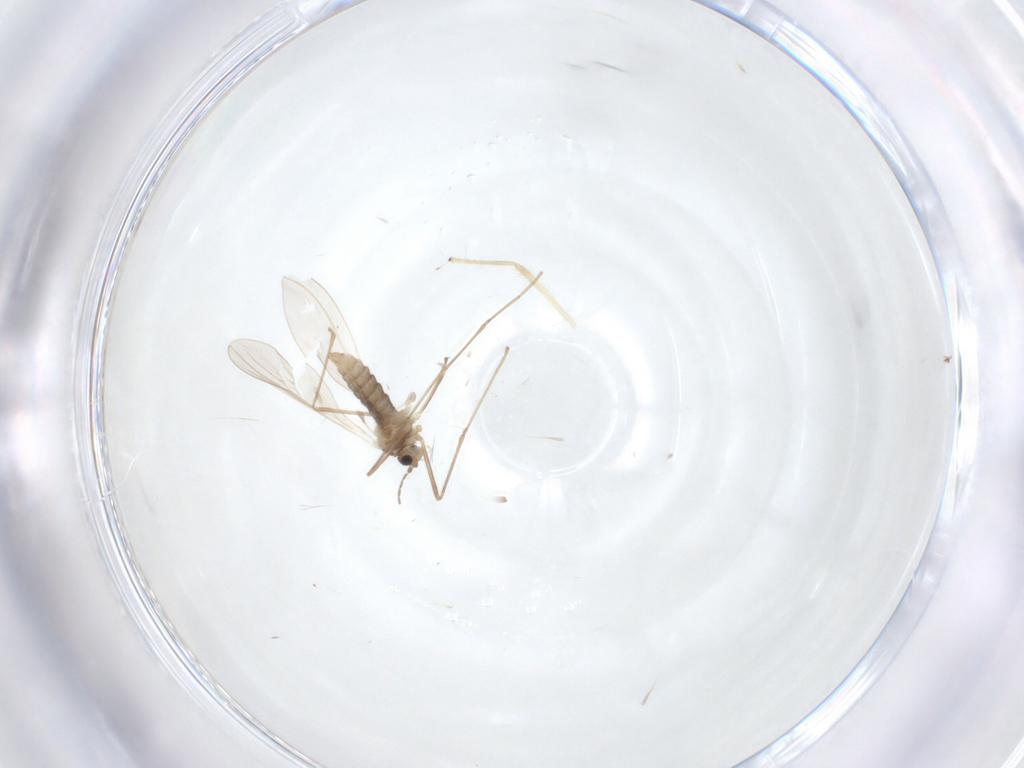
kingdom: Animalia
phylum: Arthropoda
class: Insecta
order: Diptera
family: Cecidomyiidae
